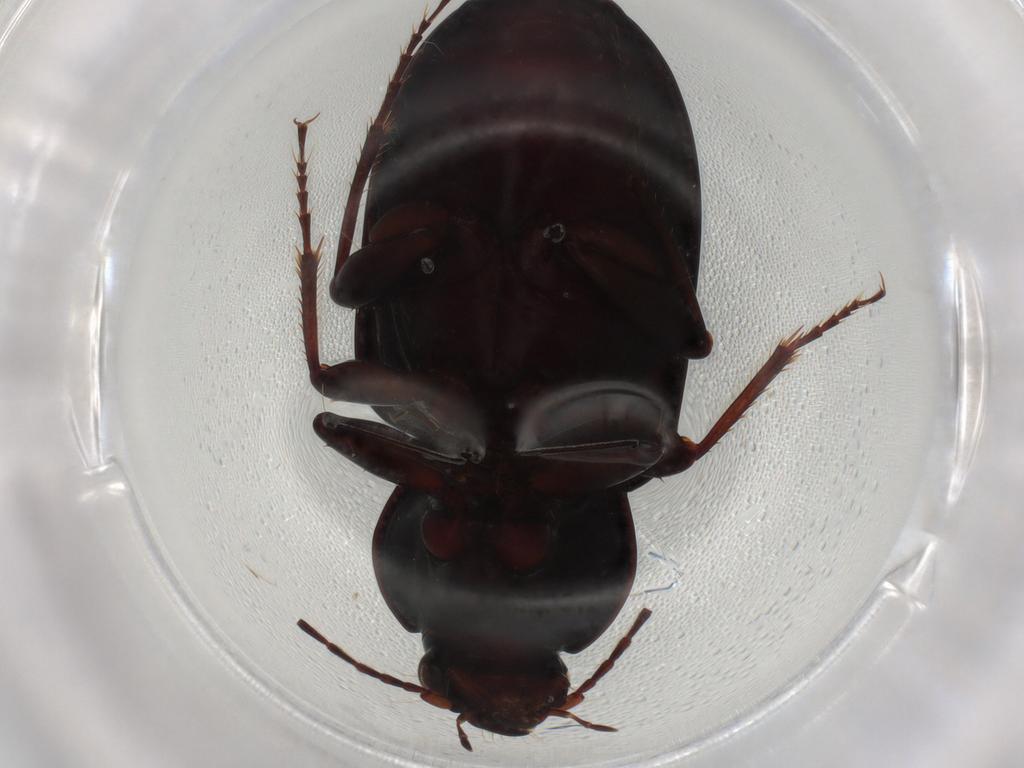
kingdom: Animalia
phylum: Arthropoda
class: Insecta
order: Coleoptera
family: Carabidae
